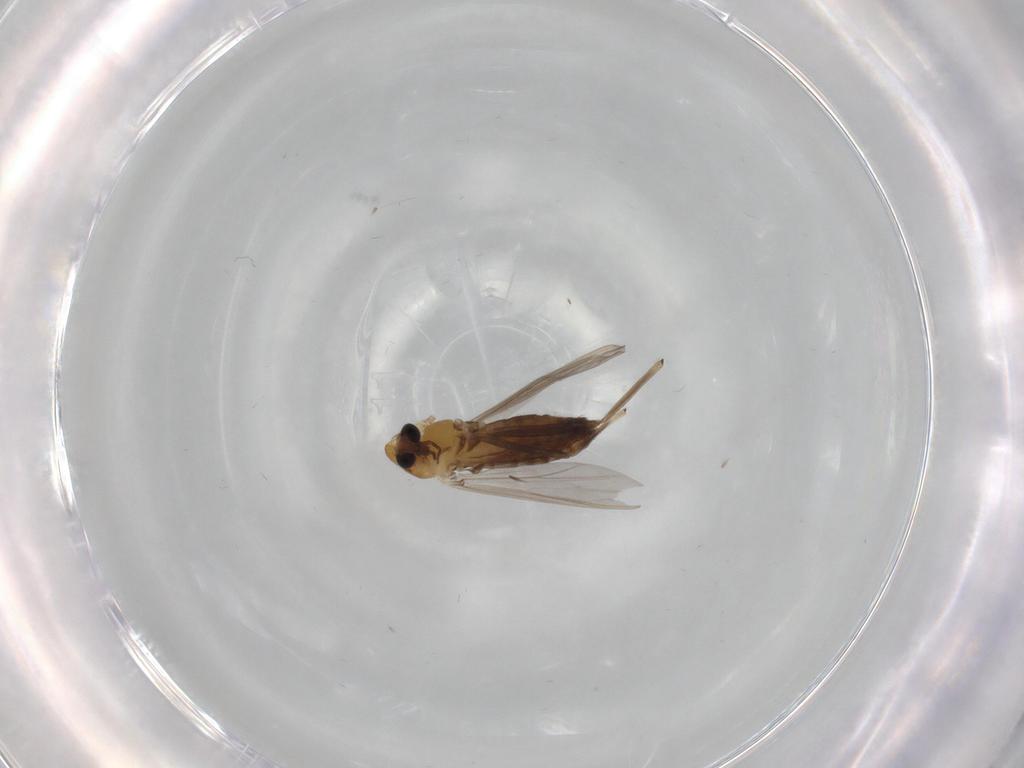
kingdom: Animalia
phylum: Arthropoda
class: Insecta
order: Diptera
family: Chironomidae
